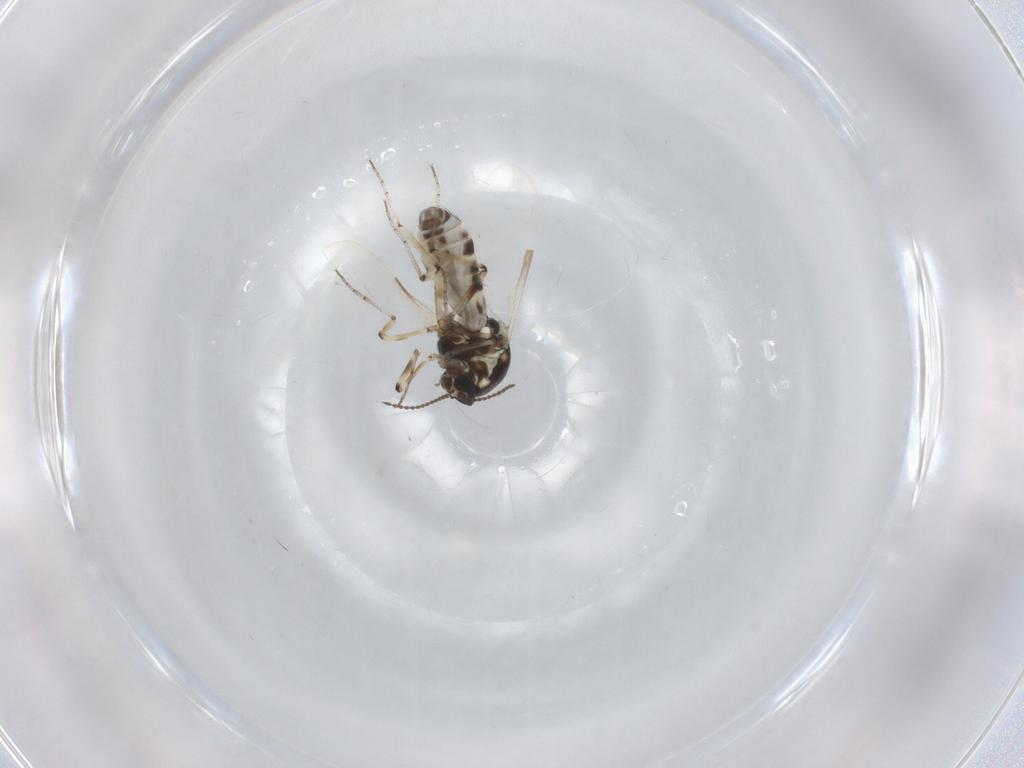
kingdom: Animalia
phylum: Arthropoda
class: Insecta
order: Diptera
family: Ceratopogonidae
